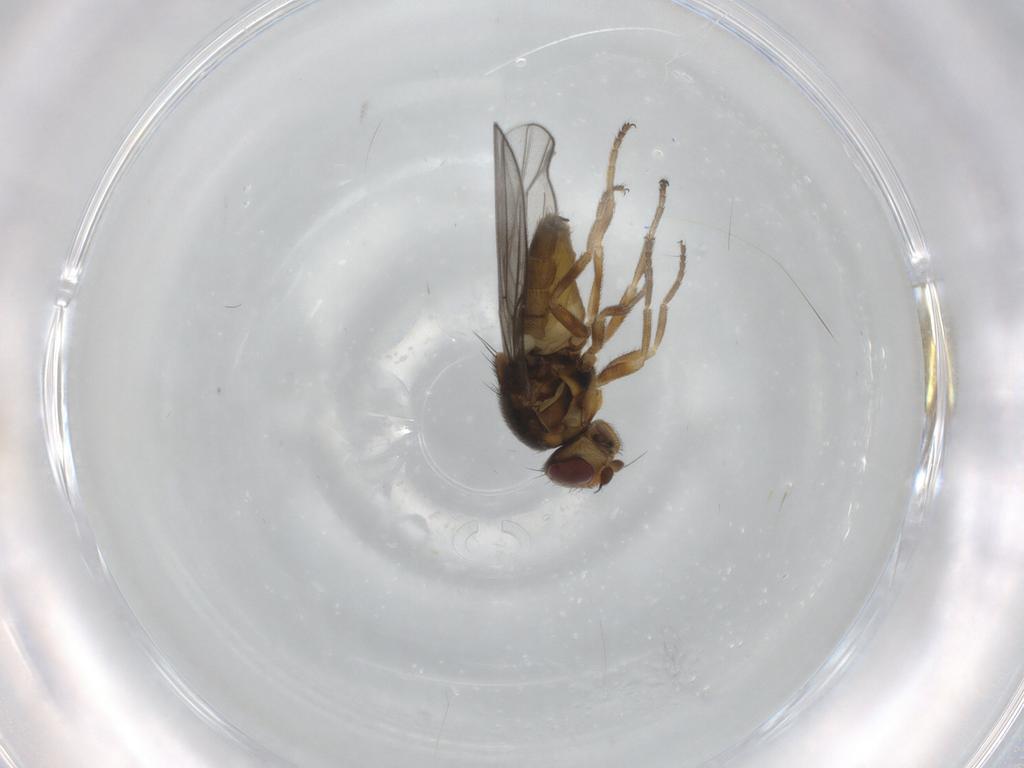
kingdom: Animalia
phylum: Arthropoda
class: Insecta
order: Diptera
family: Chloropidae
